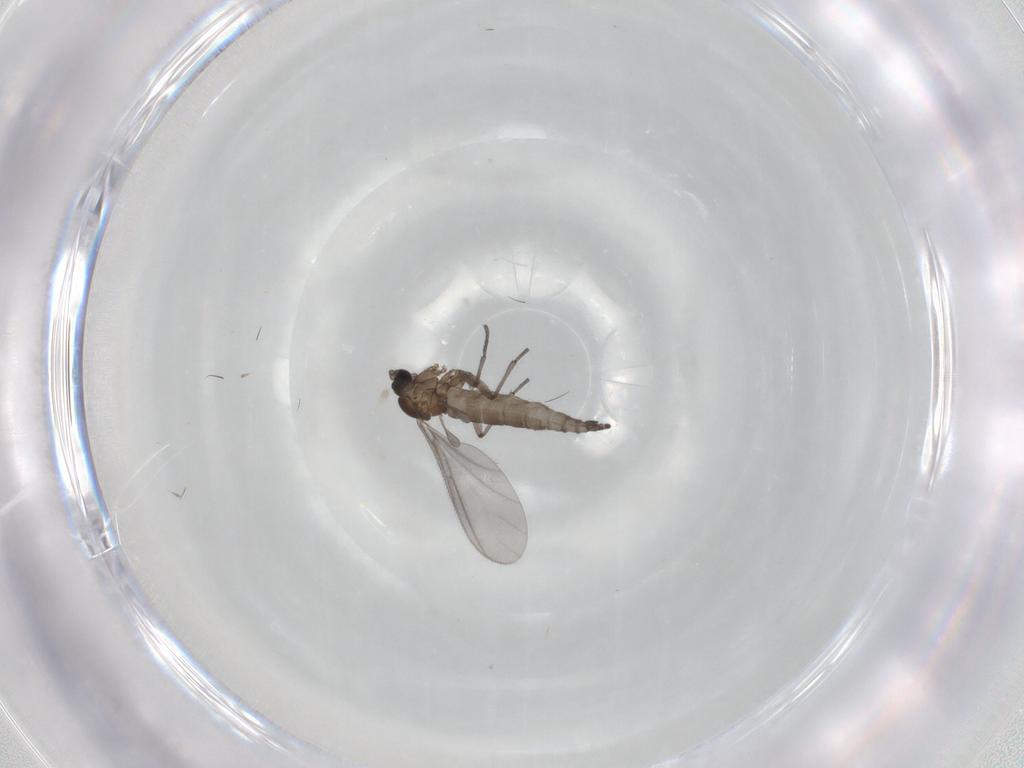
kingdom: Animalia
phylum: Arthropoda
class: Insecta
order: Diptera
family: Sciaridae
